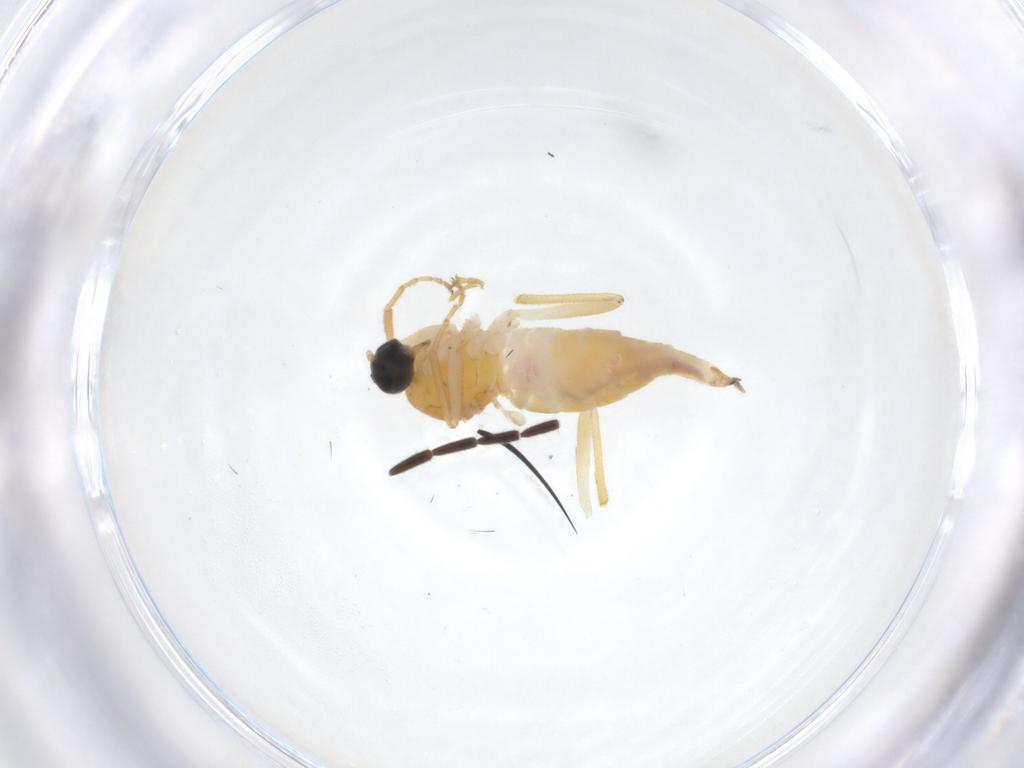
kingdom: Animalia
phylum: Arthropoda
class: Insecta
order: Diptera
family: Hybotidae
